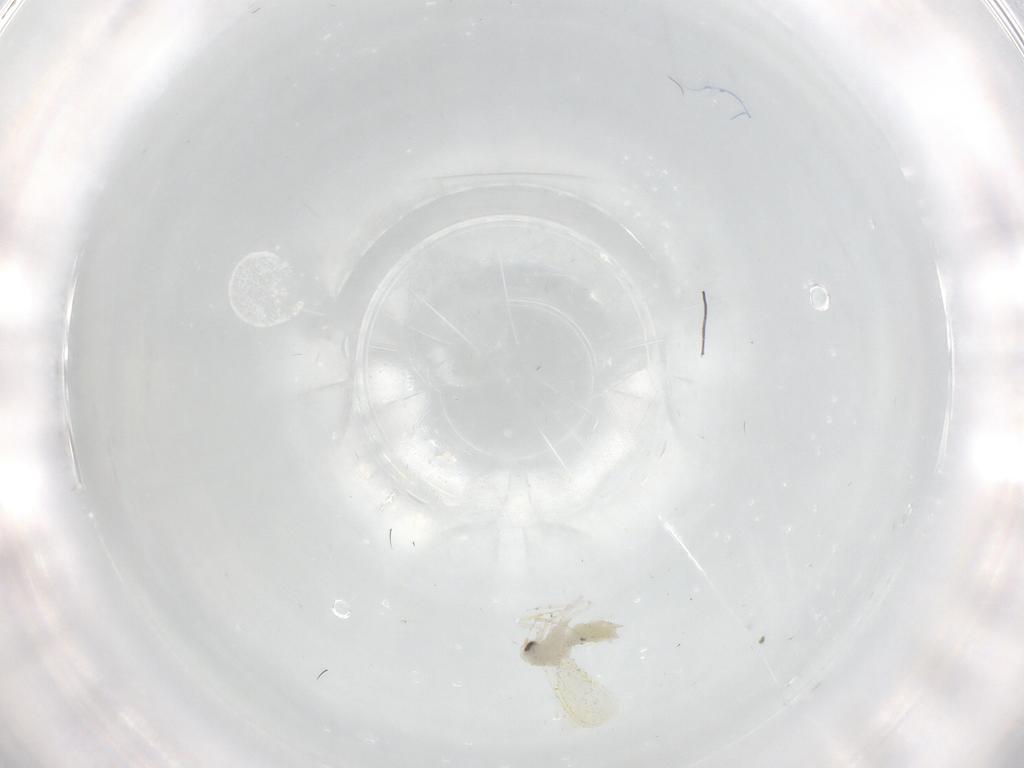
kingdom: Animalia
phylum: Arthropoda
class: Insecta
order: Hemiptera
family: Aleyrodidae
